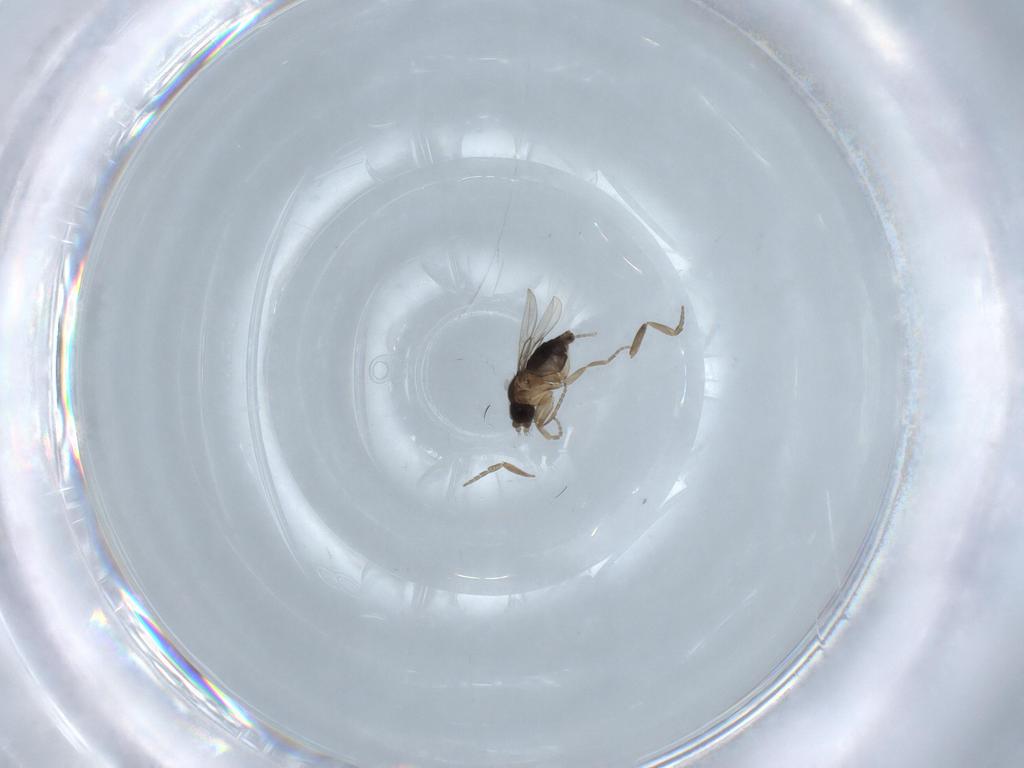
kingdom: Animalia
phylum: Arthropoda
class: Insecta
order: Diptera
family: Phoridae
